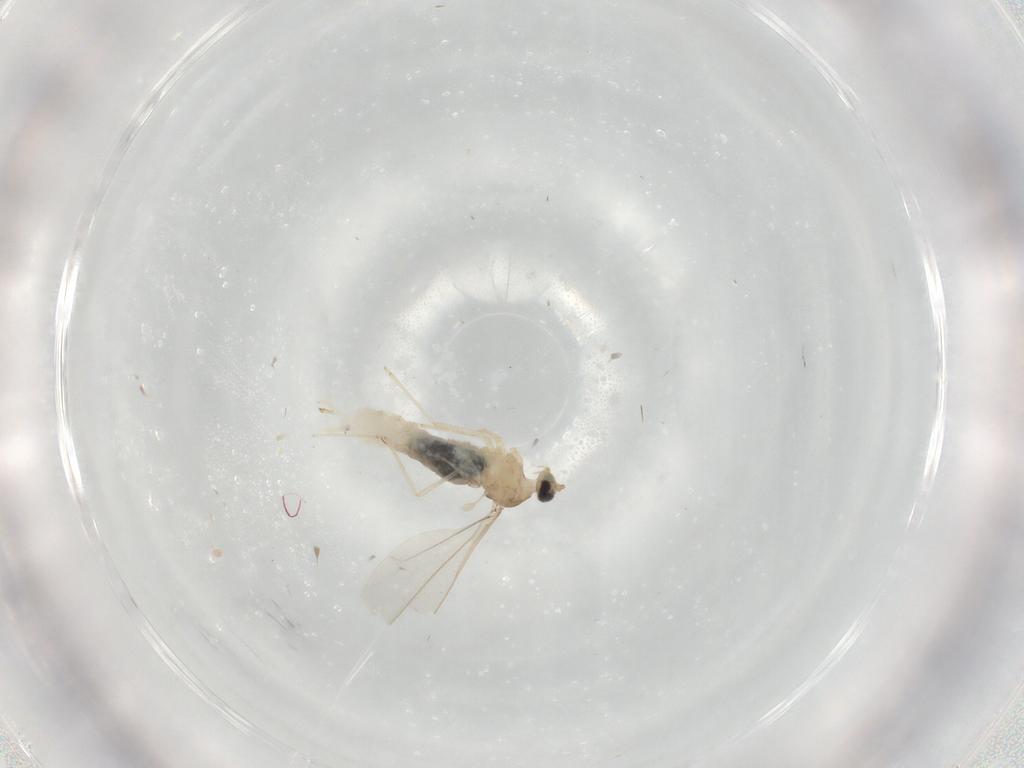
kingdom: Animalia
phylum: Arthropoda
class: Insecta
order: Diptera
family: Cecidomyiidae
